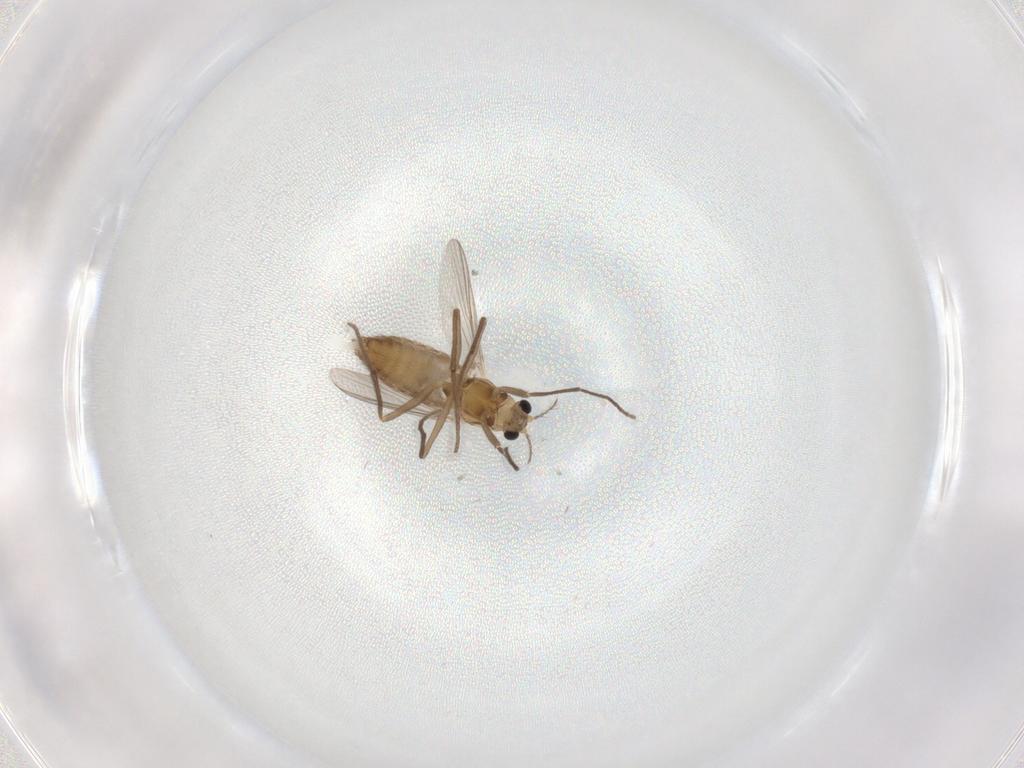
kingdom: Animalia
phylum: Arthropoda
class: Insecta
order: Diptera
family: Chironomidae
